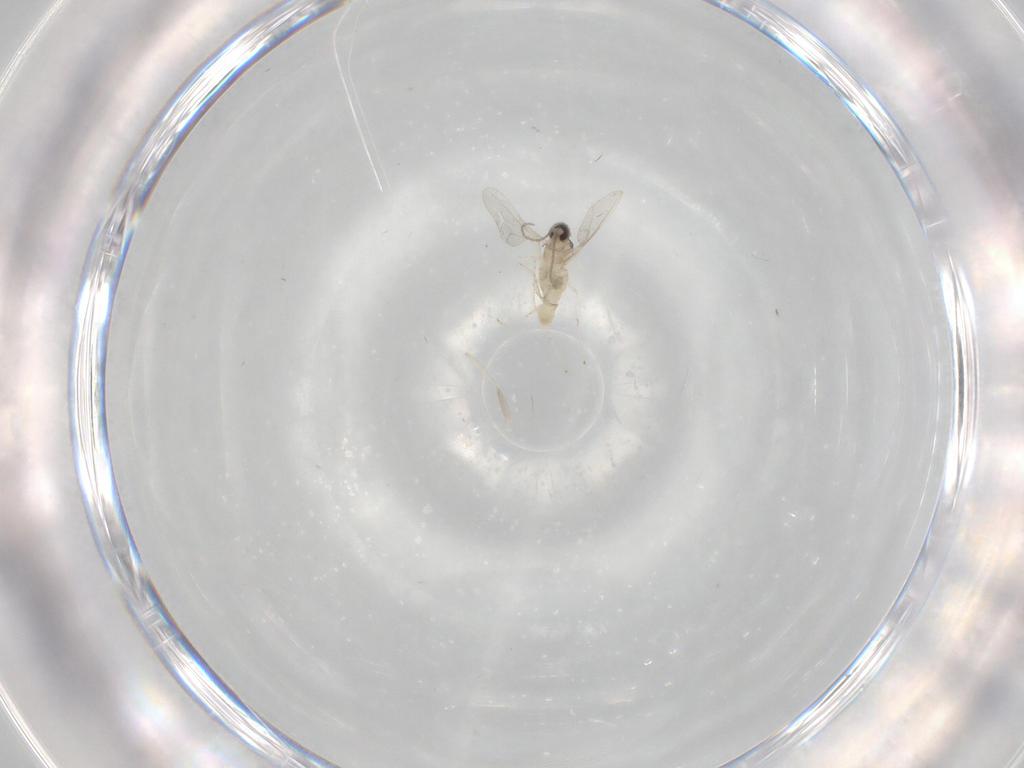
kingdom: Animalia
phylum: Arthropoda
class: Insecta
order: Diptera
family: Cecidomyiidae
